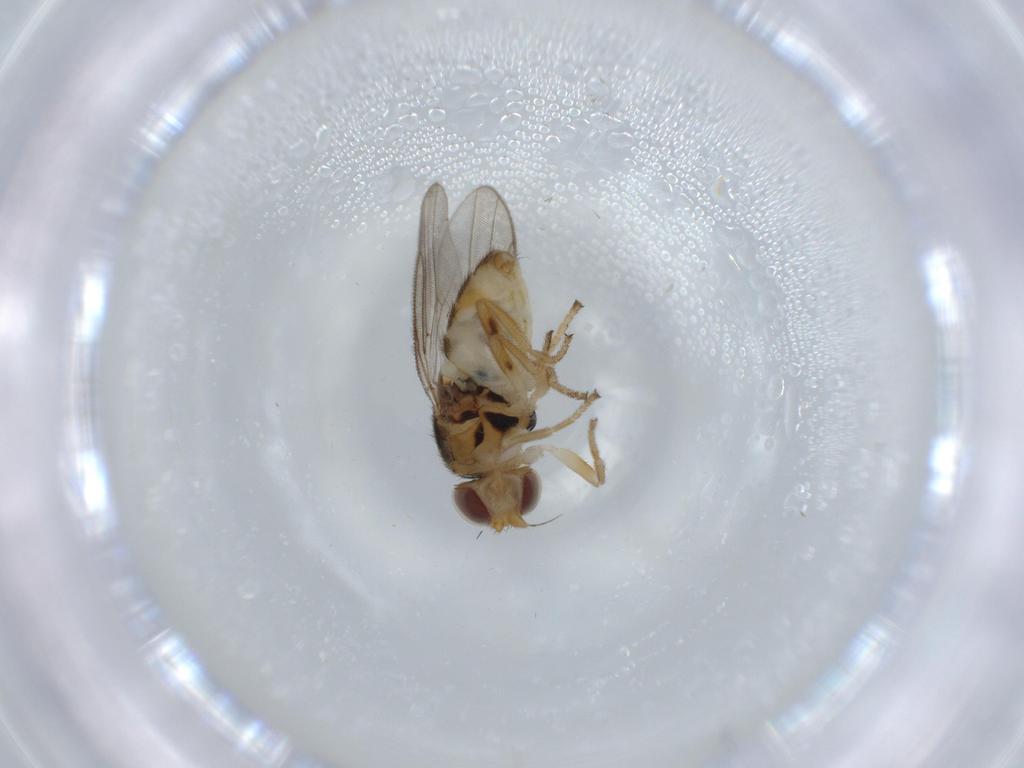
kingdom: Animalia
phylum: Arthropoda
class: Insecta
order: Diptera
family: Chloropidae
